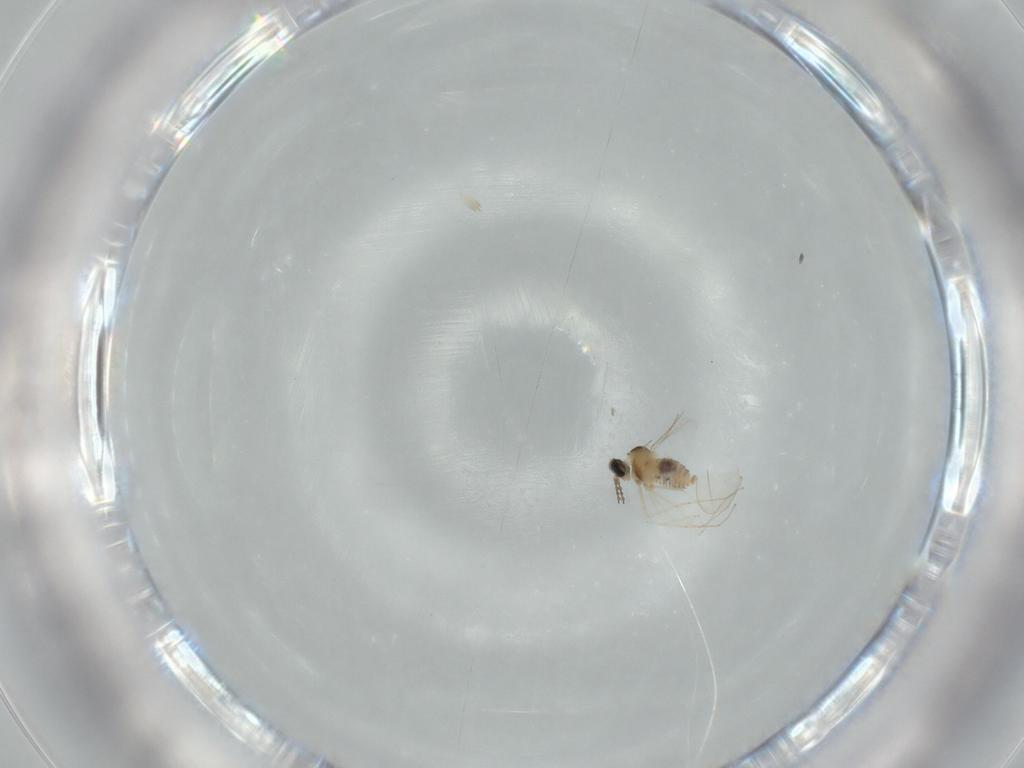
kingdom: Animalia
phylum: Arthropoda
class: Insecta
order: Diptera
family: Cecidomyiidae
